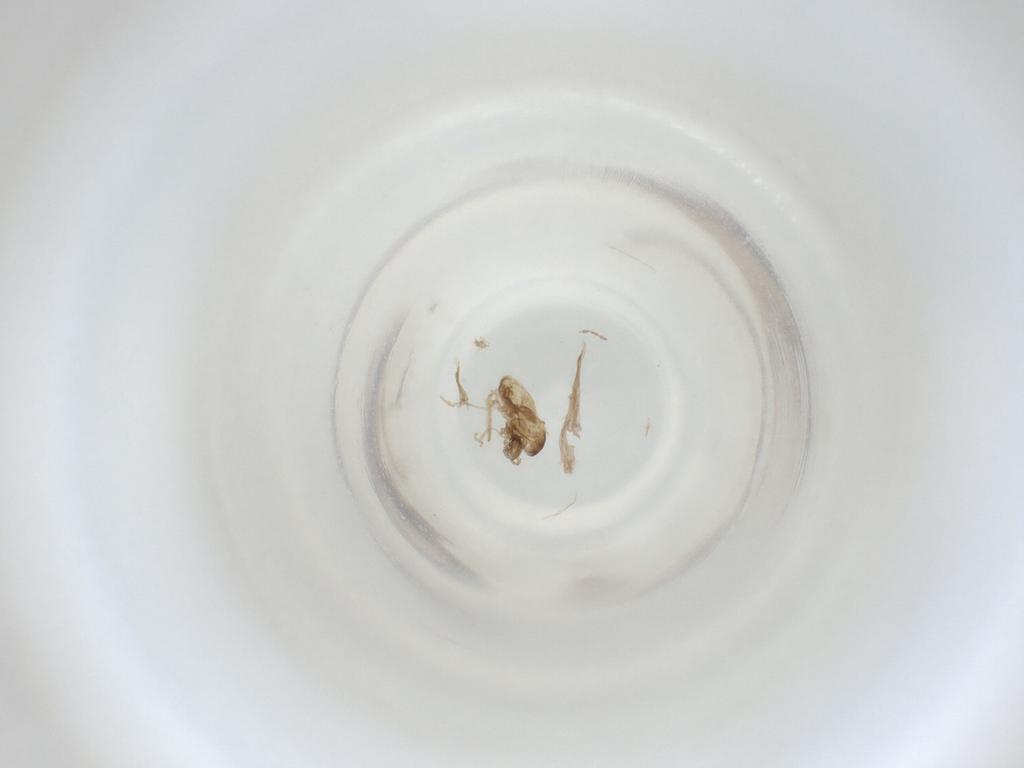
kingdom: Animalia
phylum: Arthropoda
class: Insecta
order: Diptera
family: Cecidomyiidae
